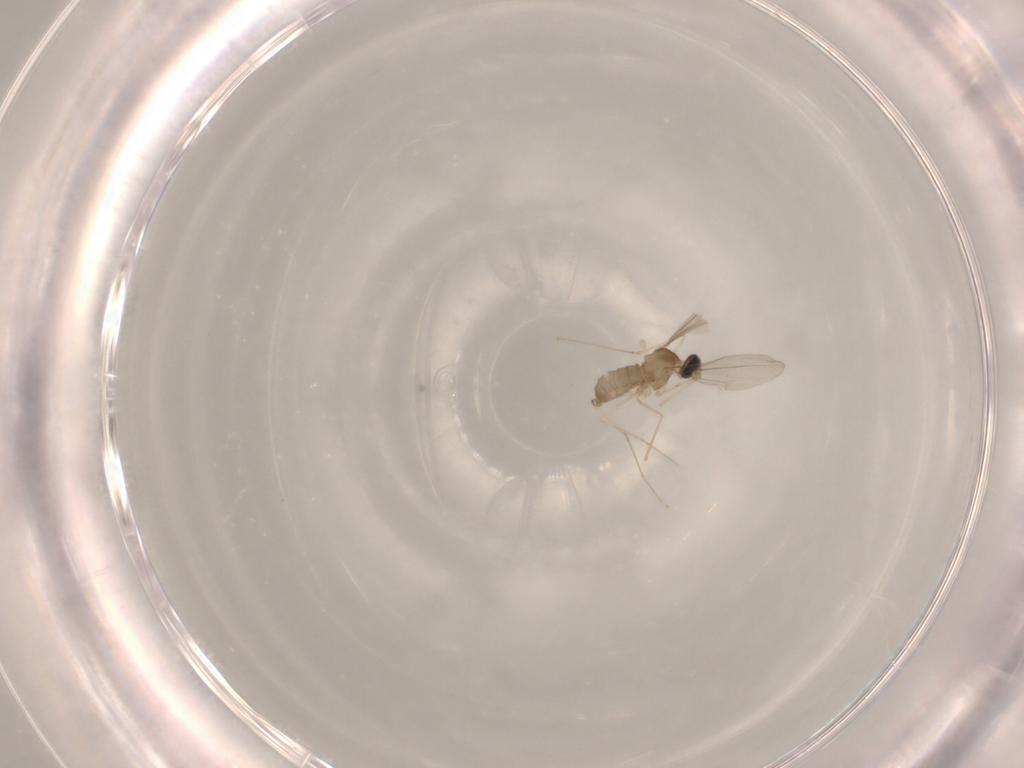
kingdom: Animalia
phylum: Arthropoda
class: Insecta
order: Diptera
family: Cecidomyiidae
